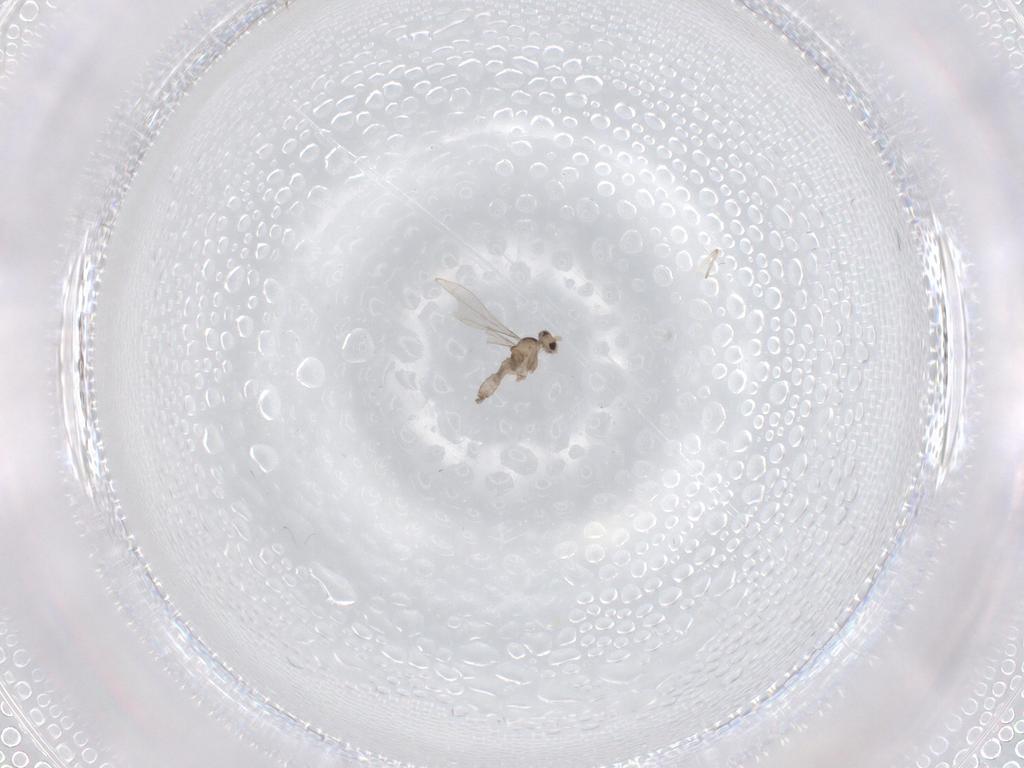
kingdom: Animalia
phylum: Arthropoda
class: Insecta
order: Diptera
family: Cecidomyiidae
